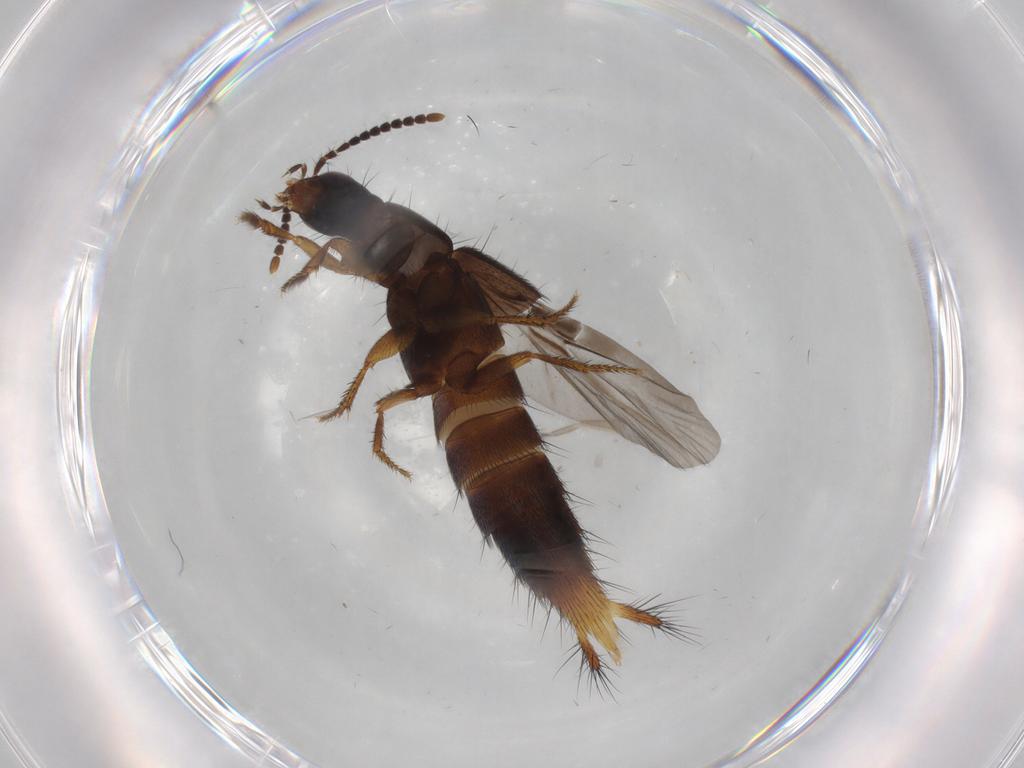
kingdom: Animalia
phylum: Arthropoda
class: Insecta
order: Coleoptera
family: Staphylinidae
